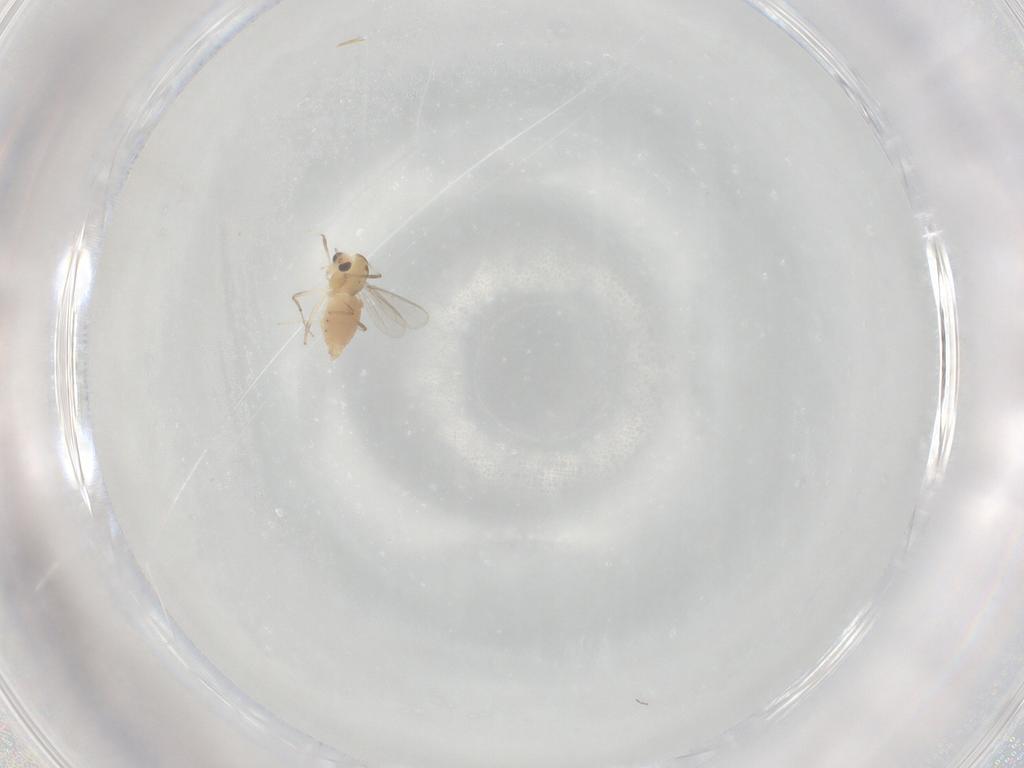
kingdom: Animalia
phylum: Arthropoda
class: Insecta
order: Diptera
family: Chironomidae
